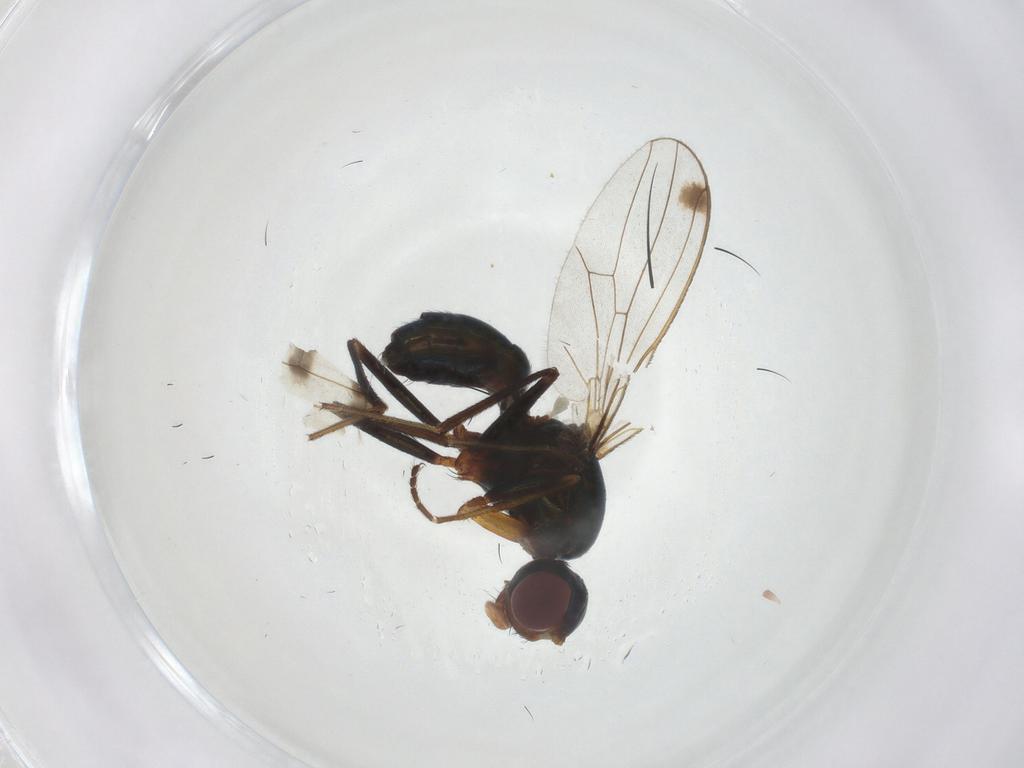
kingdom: Animalia
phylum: Arthropoda
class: Insecta
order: Diptera
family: Sepsidae
